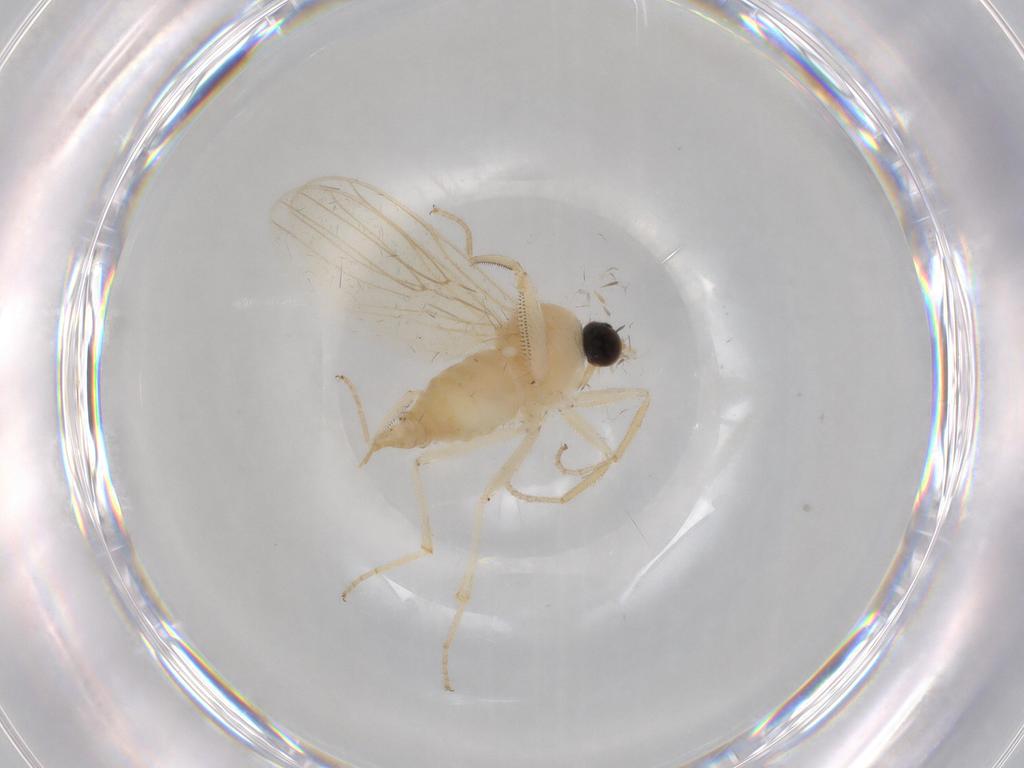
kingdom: Animalia
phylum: Arthropoda
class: Insecta
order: Diptera
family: Hybotidae
